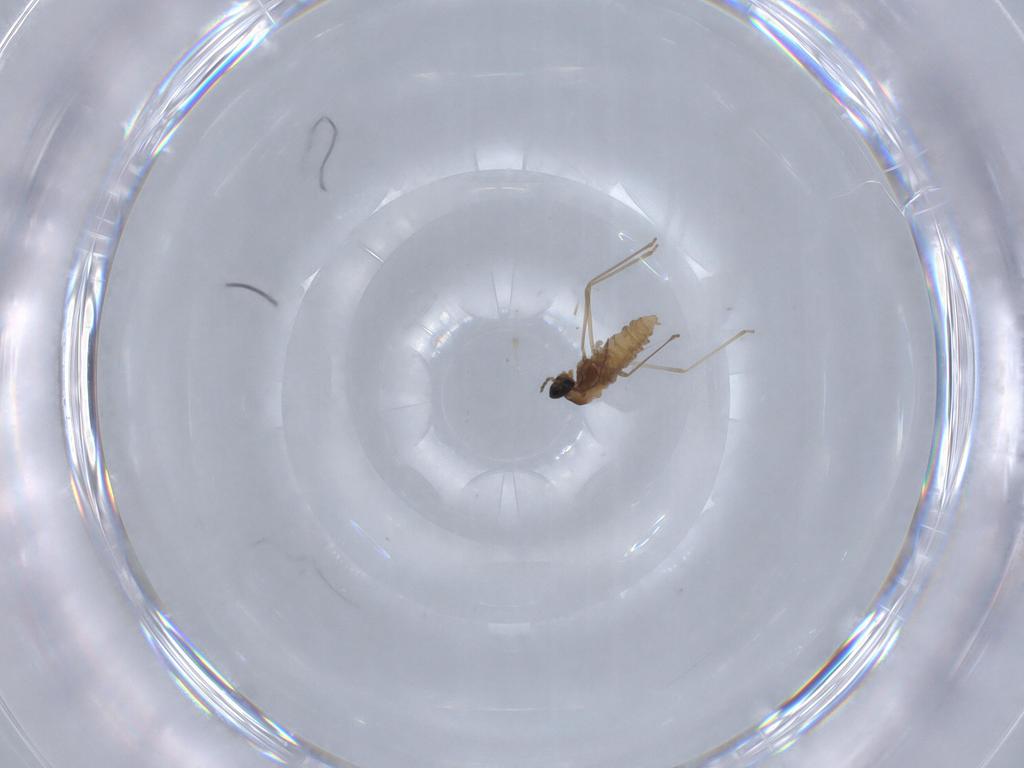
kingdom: Animalia
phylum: Arthropoda
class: Insecta
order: Diptera
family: Cecidomyiidae
